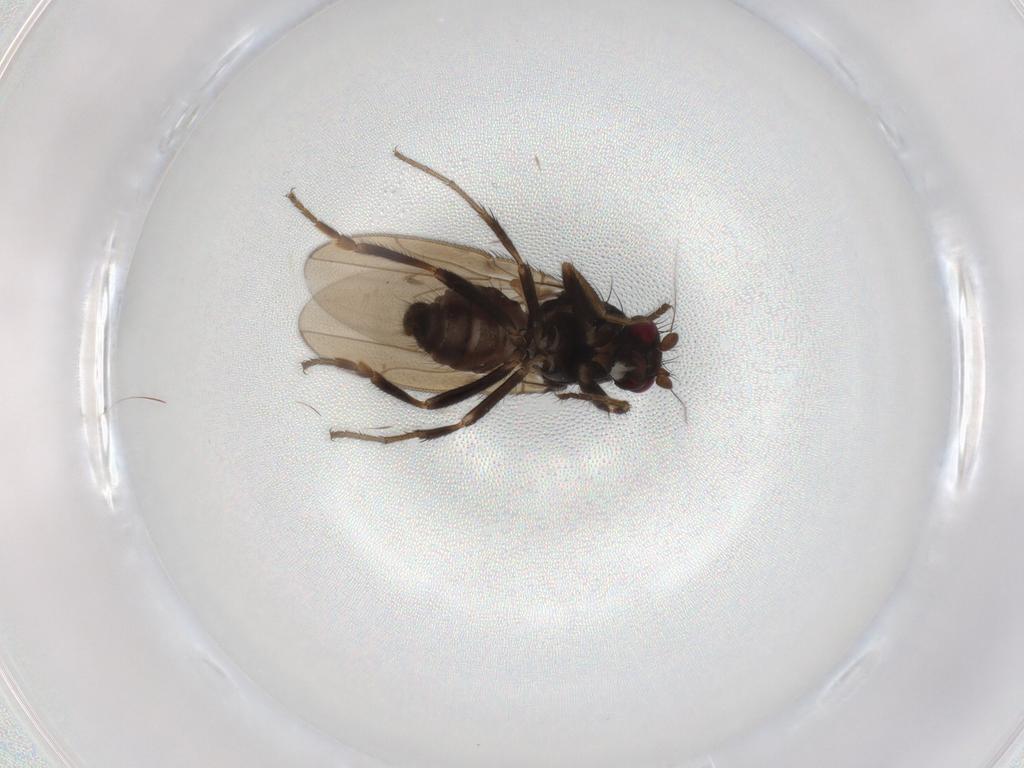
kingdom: Animalia
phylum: Arthropoda
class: Insecta
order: Diptera
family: Sphaeroceridae
